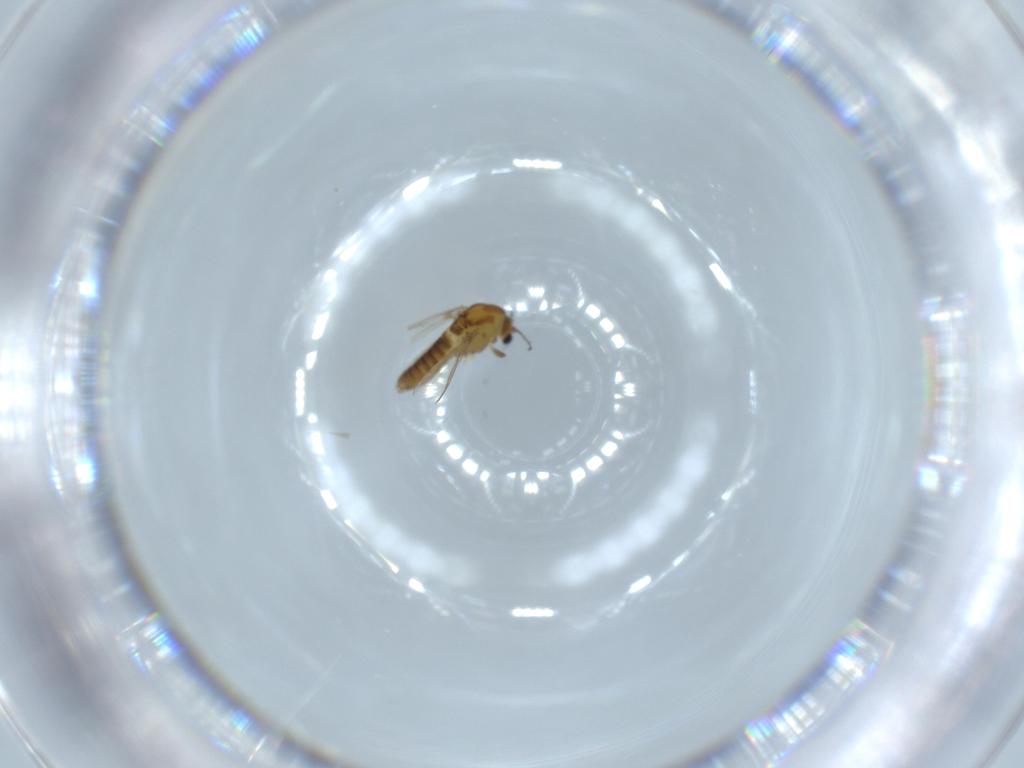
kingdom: Animalia
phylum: Arthropoda
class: Insecta
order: Diptera
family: Chironomidae
